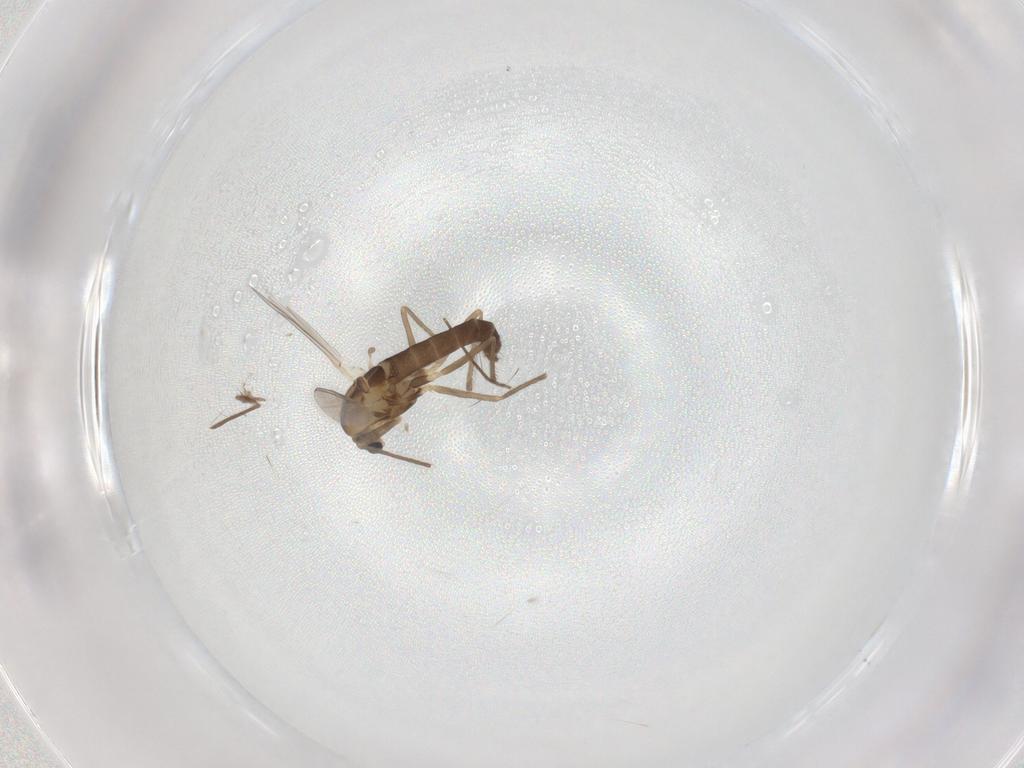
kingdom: Animalia
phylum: Arthropoda
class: Insecta
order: Diptera
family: Chironomidae
